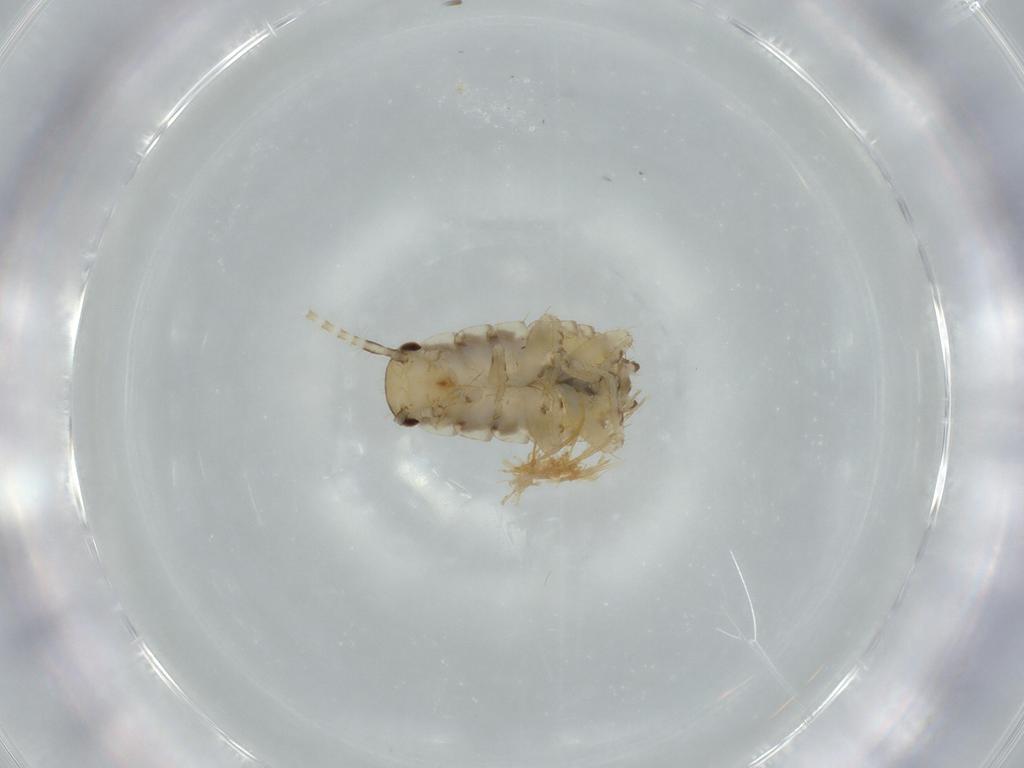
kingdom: Animalia
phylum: Arthropoda
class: Insecta
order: Blattodea
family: Ectobiidae
